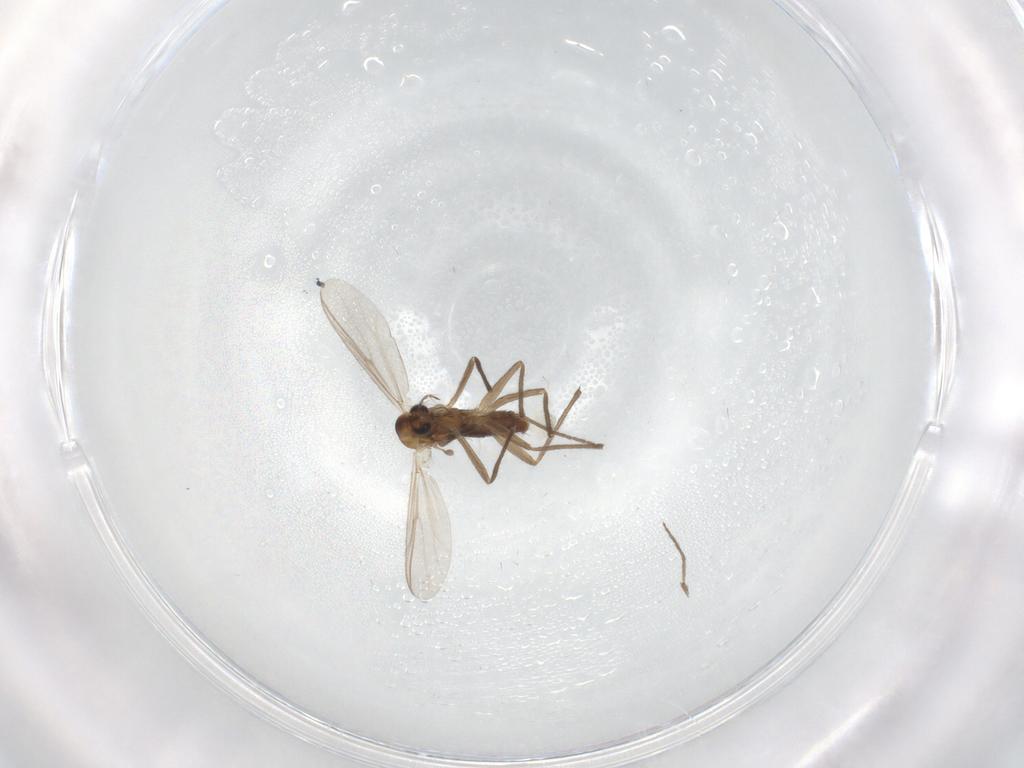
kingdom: Animalia
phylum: Arthropoda
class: Insecta
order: Diptera
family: Chironomidae
